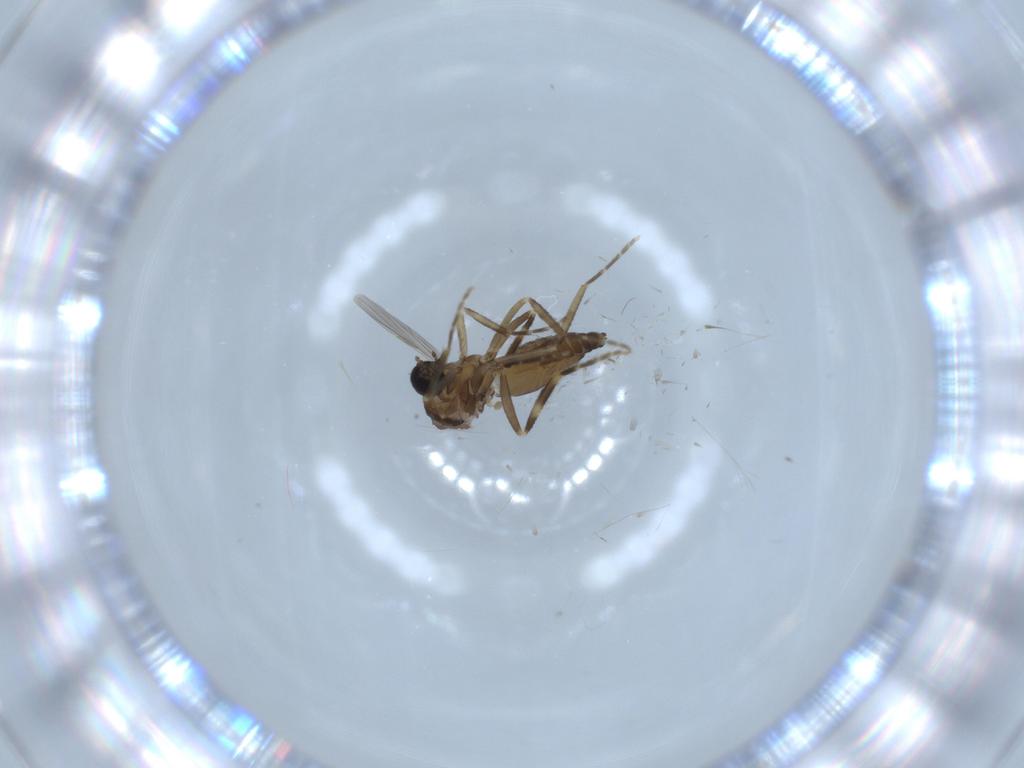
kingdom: Animalia
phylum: Arthropoda
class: Insecta
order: Diptera
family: Ceratopogonidae
